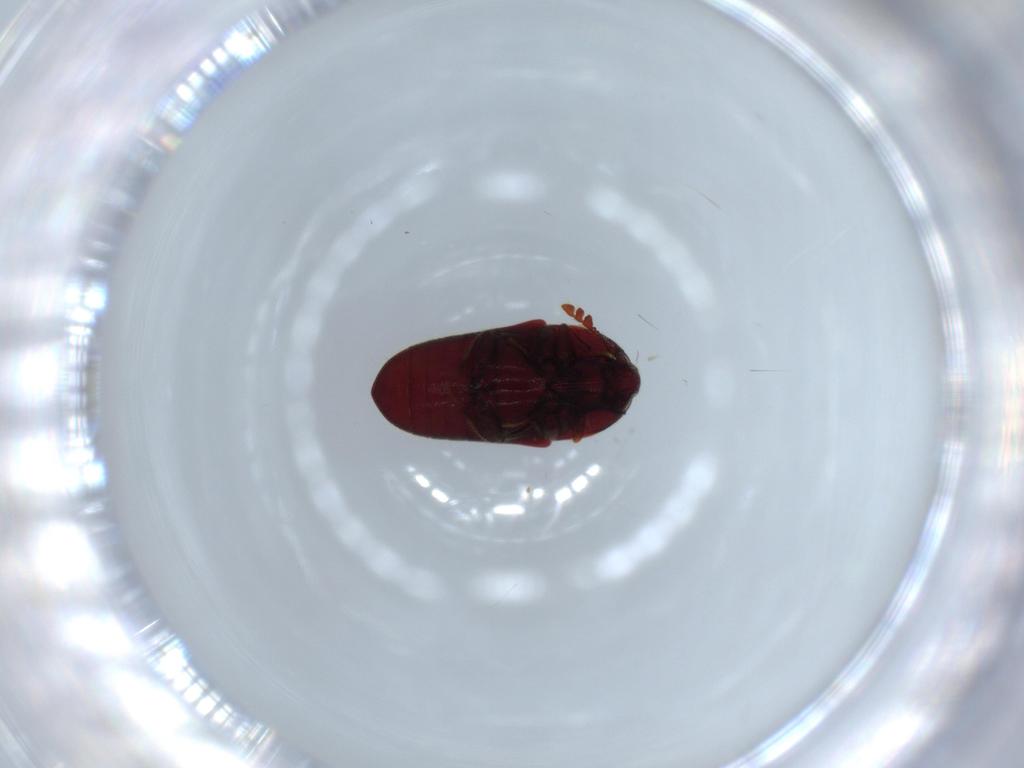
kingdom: Animalia
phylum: Arthropoda
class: Insecta
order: Coleoptera
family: Throscidae
